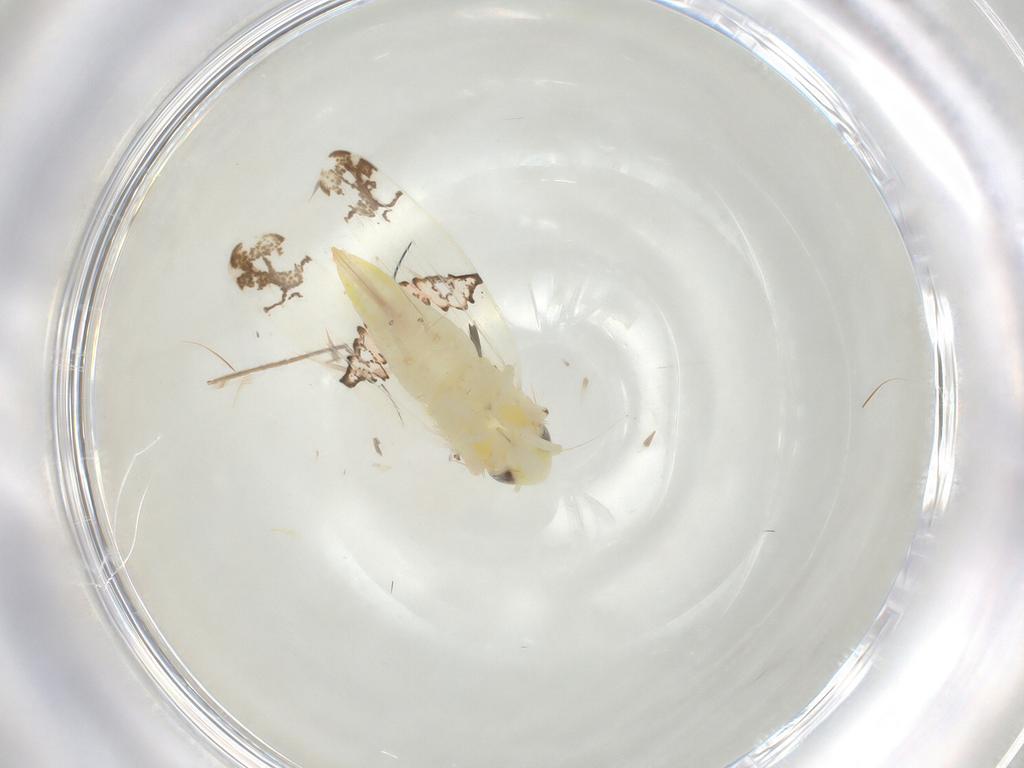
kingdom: Animalia
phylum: Arthropoda
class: Insecta
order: Hemiptera
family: Cicadellidae
